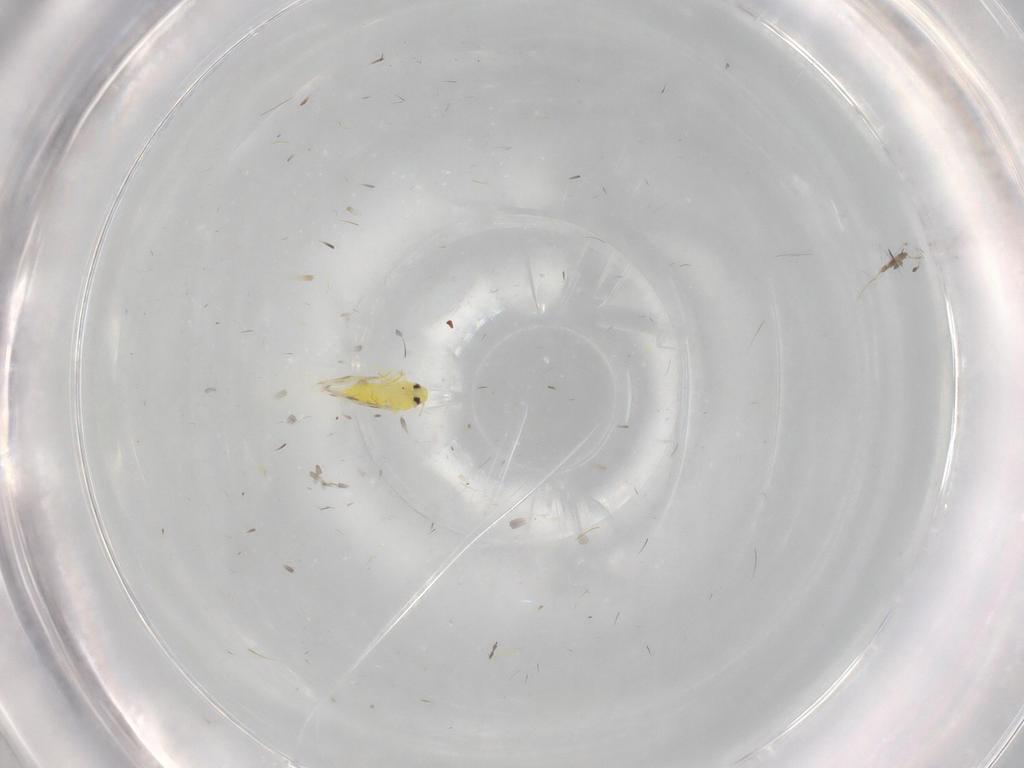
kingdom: Animalia
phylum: Arthropoda
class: Insecta
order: Hemiptera
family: Aleyrodidae
